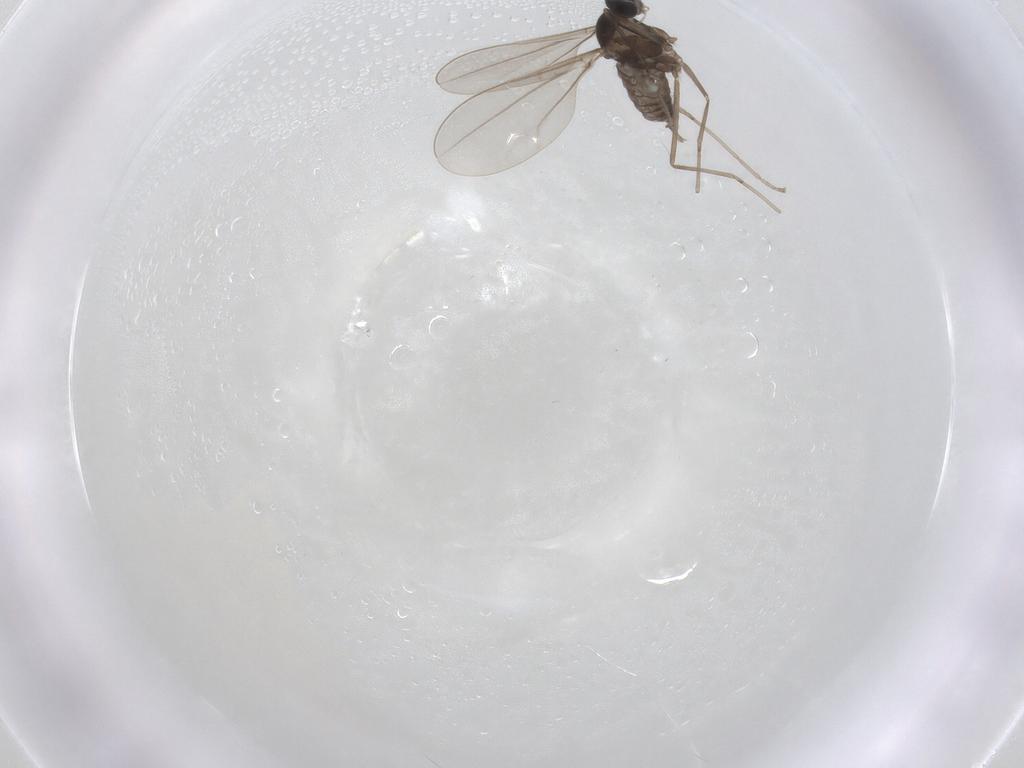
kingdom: Animalia
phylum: Arthropoda
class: Insecta
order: Diptera
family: Cecidomyiidae
